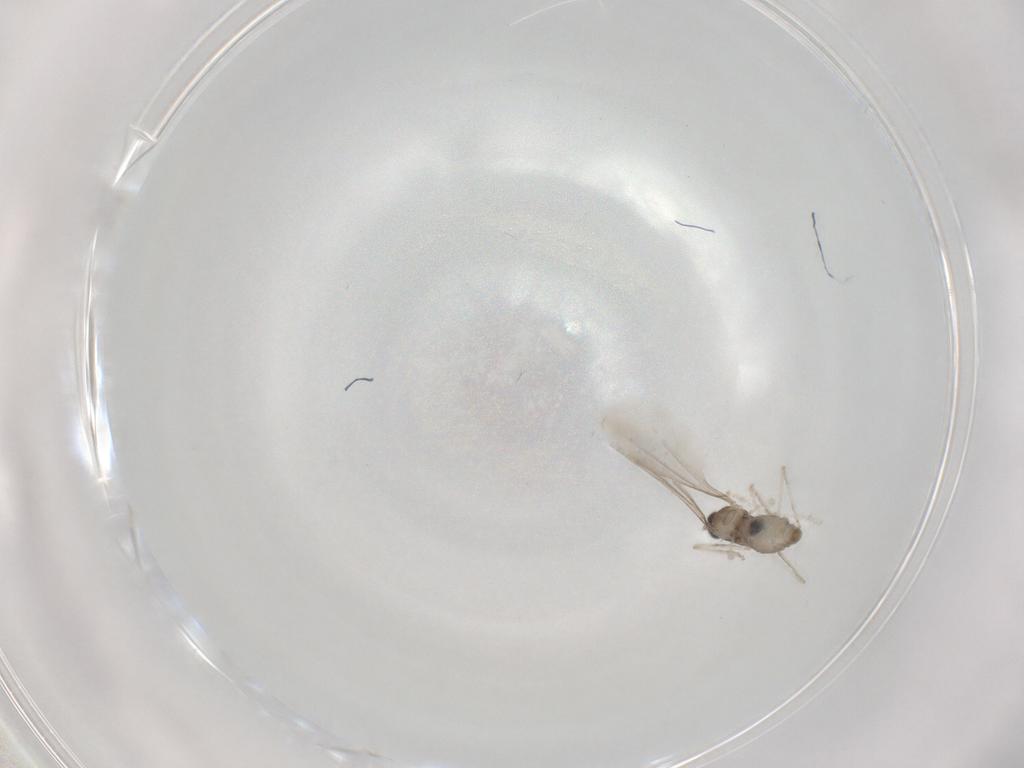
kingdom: Animalia
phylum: Arthropoda
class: Insecta
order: Diptera
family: Cecidomyiidae
